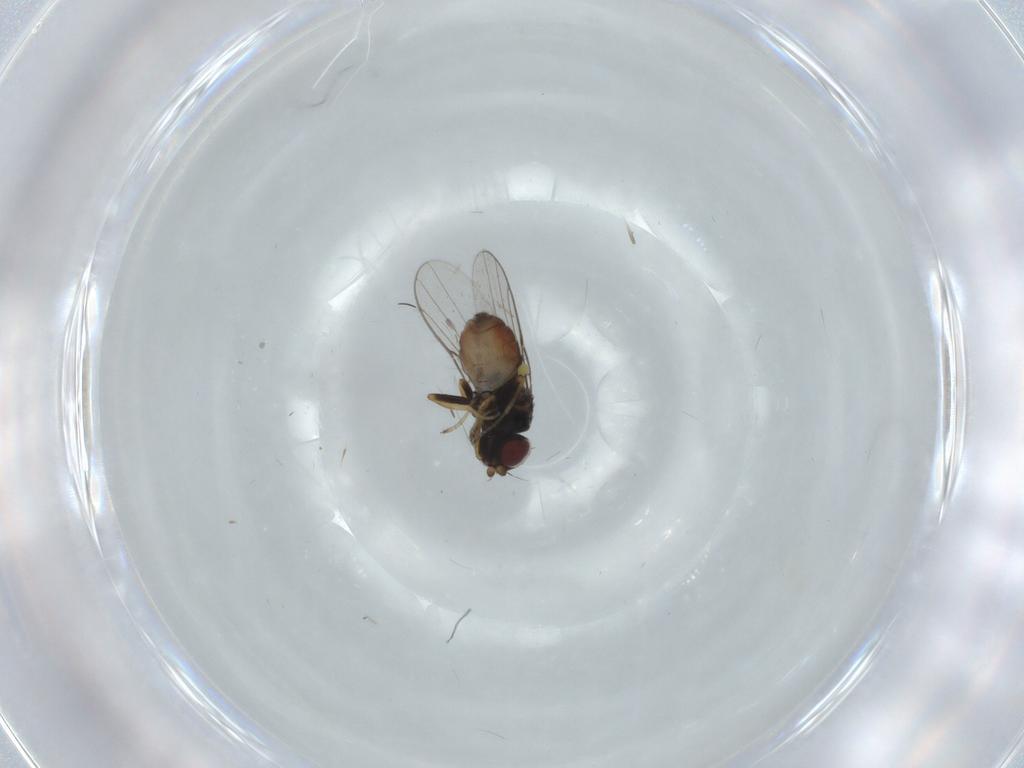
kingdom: Animalia
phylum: Arthropoda
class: Insecta
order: Diptera
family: Chloropidae
